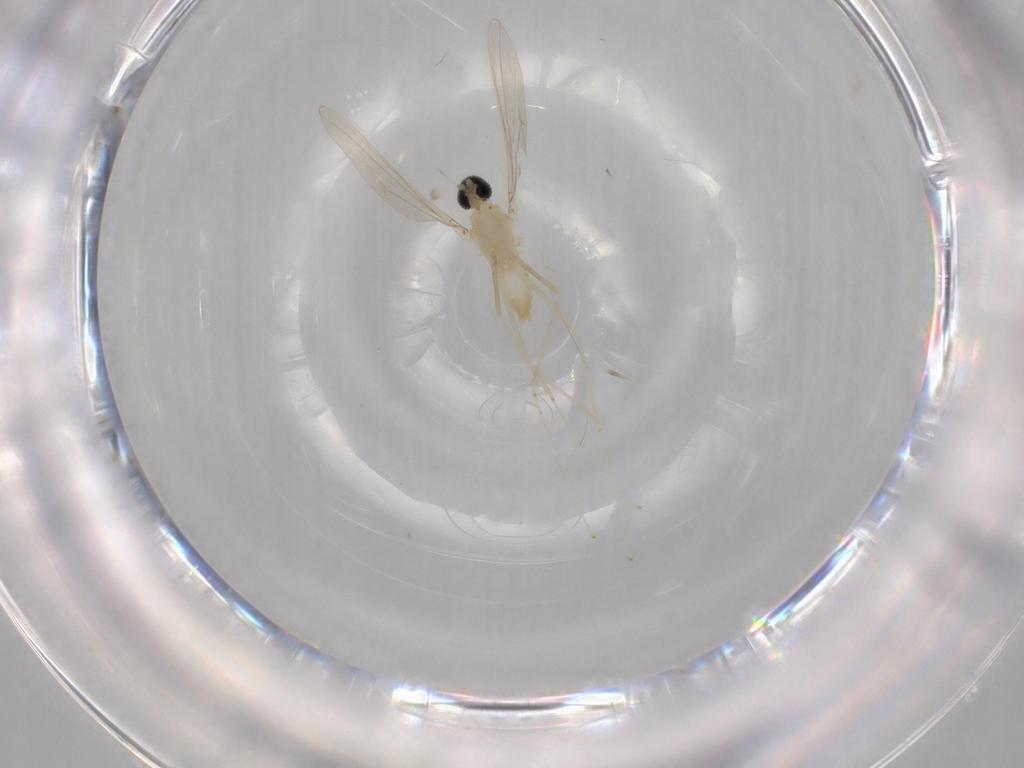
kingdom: Animalia
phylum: Arthropoda
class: Insecta
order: Diptera
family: Cecidomyiidae
